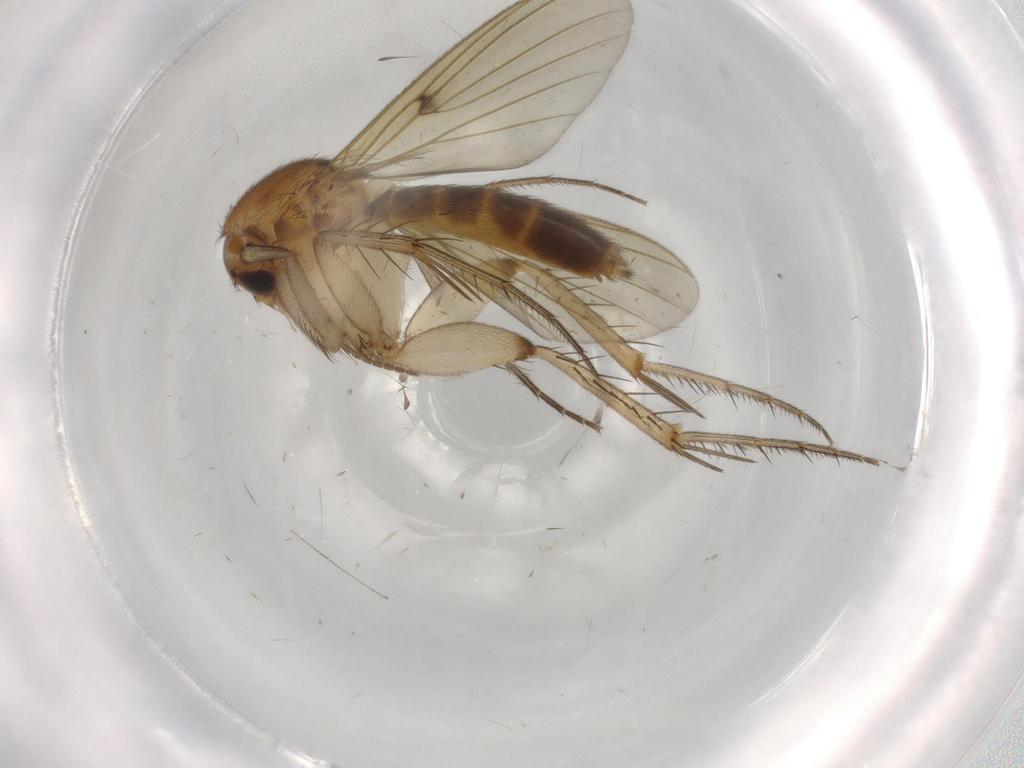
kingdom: Animalia
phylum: Arthropoda
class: Insecta
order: Diptera
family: Mycetophilidae
